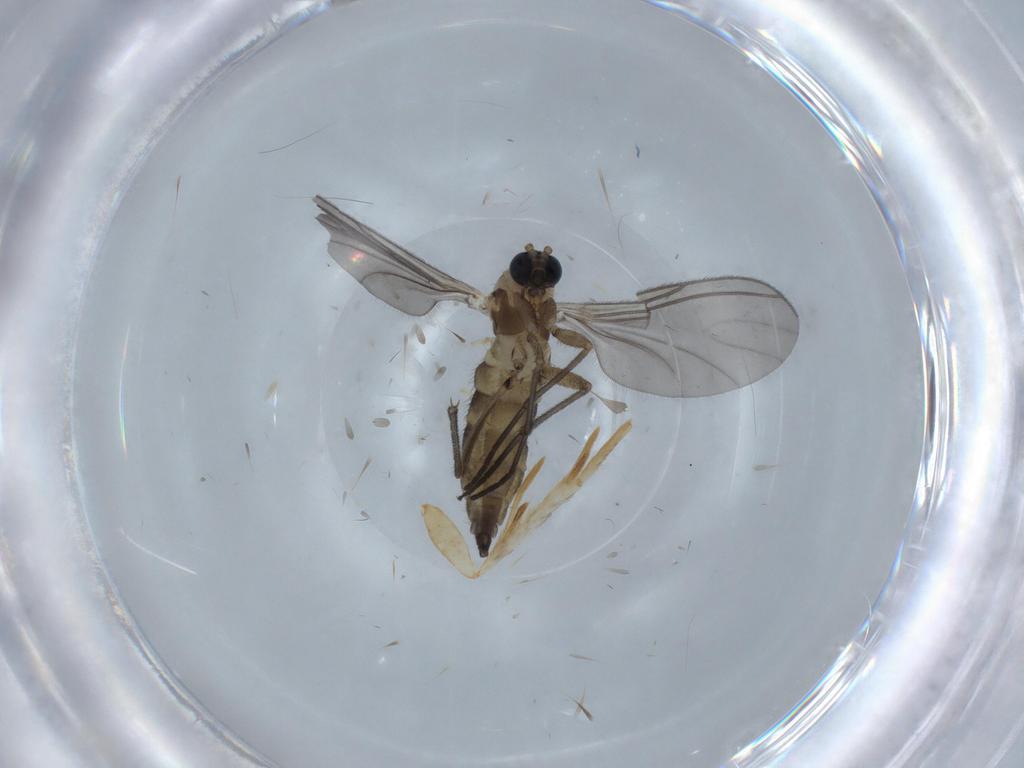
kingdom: Animalia
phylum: Arthropoda
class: Insecta
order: Diptera
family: Sciaridae
